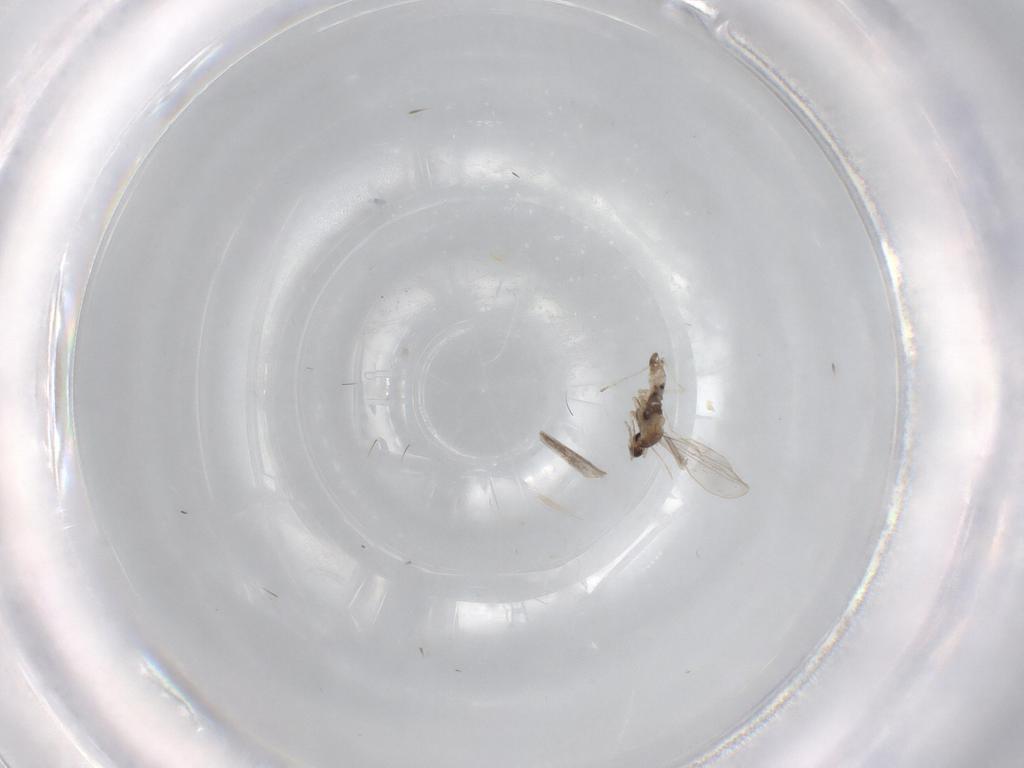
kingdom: Animalia
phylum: Arthropoda
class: Insecta
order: Diptera
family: Cecidomyiidae
